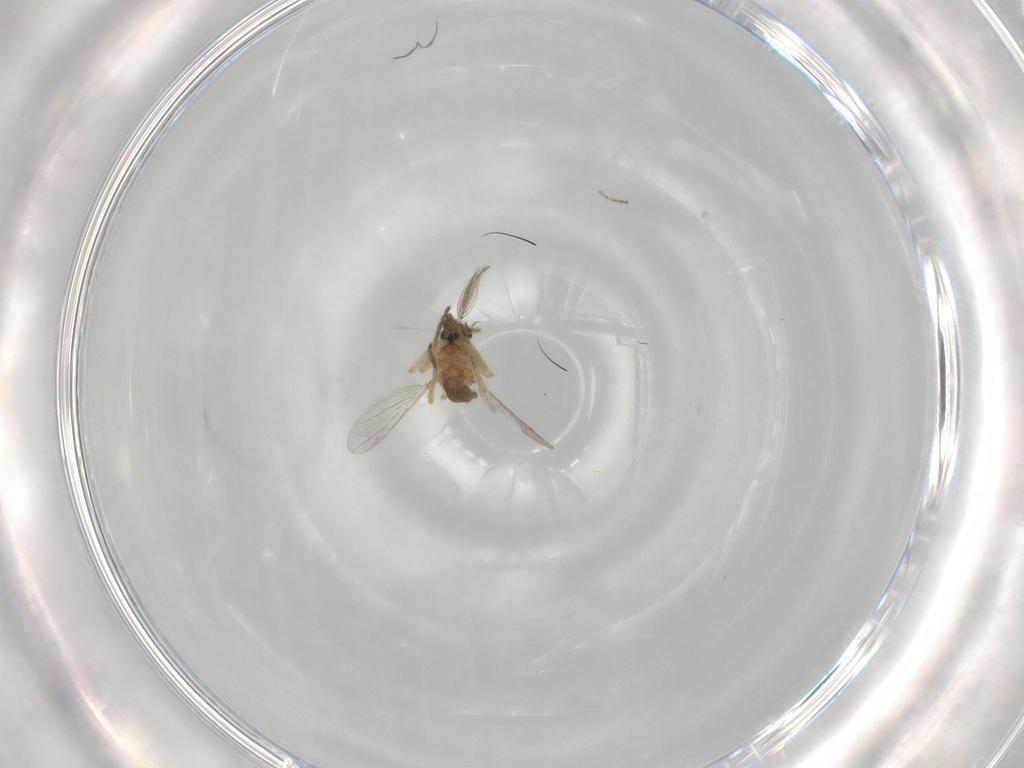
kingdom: Animalia
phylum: Arthropoda
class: Insecta
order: Diptera
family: Ceratopogonidae
